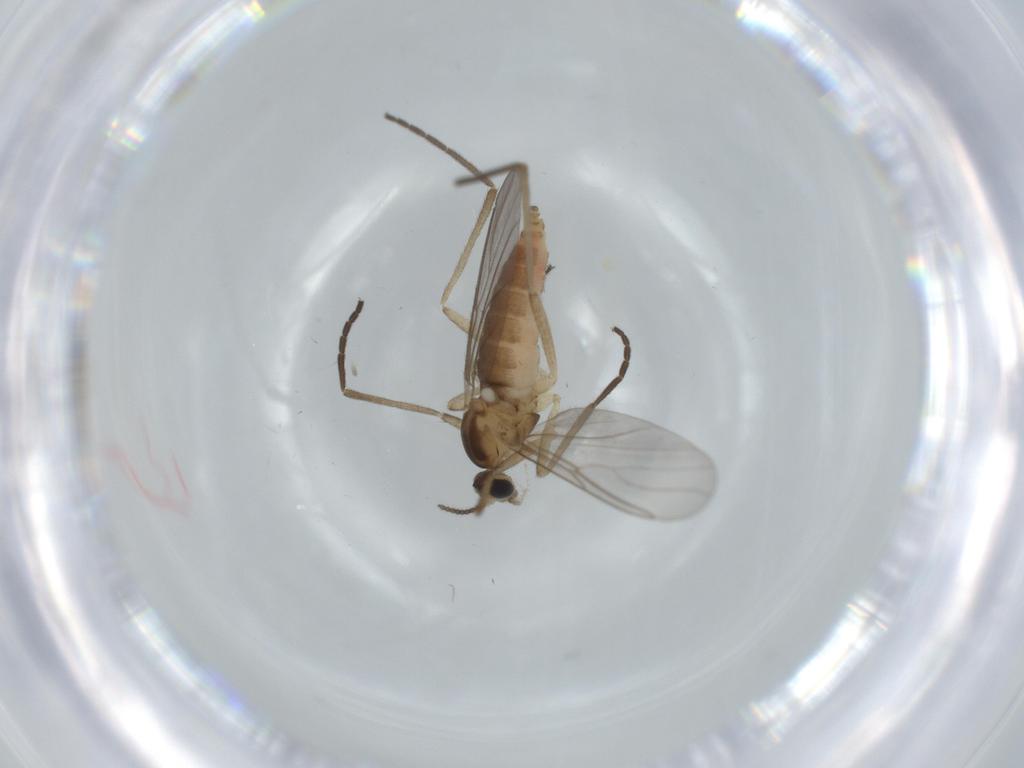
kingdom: Animalia
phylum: Arthropoda
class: Insecta
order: Diptera
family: Cecidomyiidae
